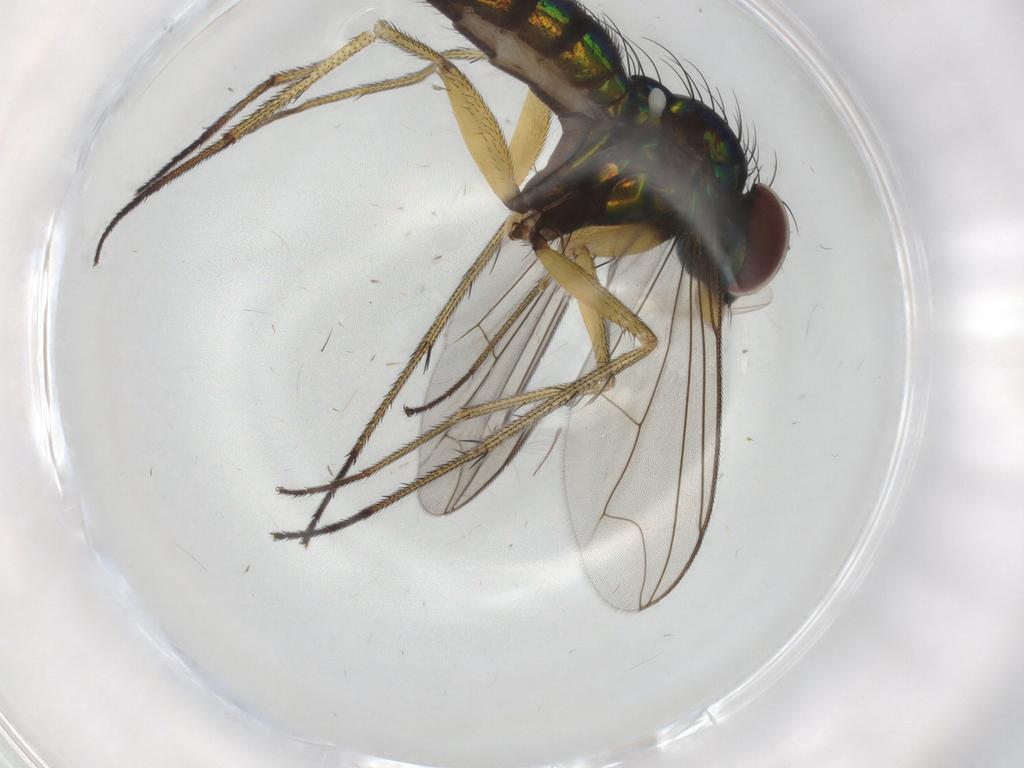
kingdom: Animalia
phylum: Arthropoda
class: Insecta
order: Diptera
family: Dolichopodidae
